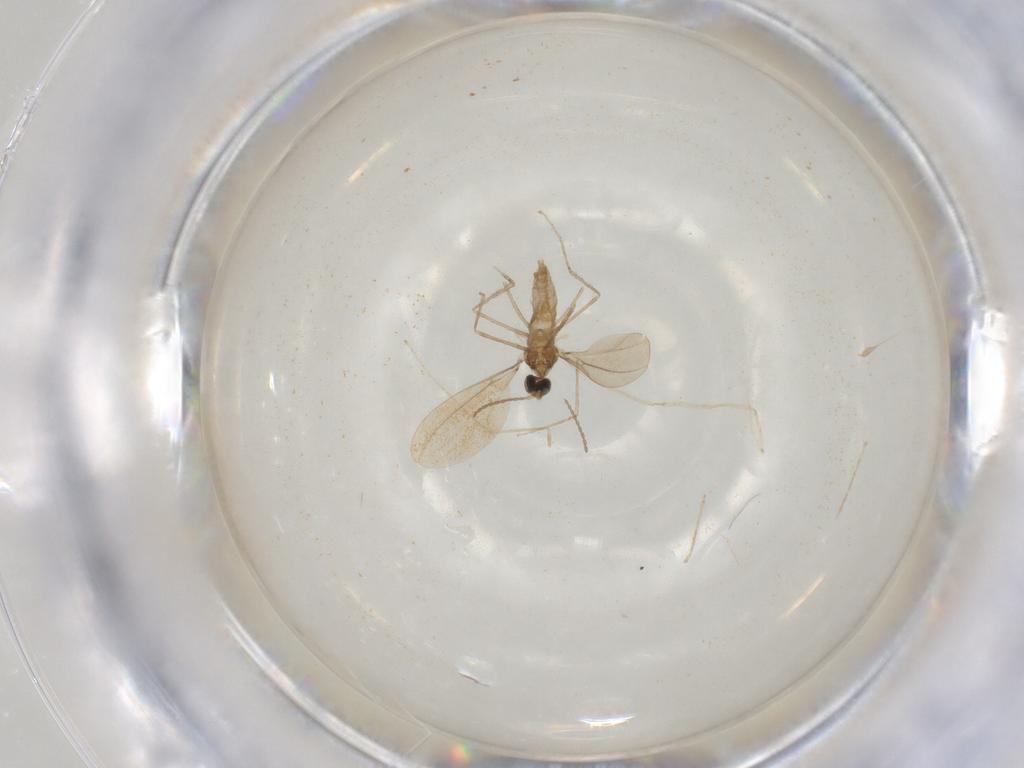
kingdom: Animalia
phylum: Arthropoda
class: Insecta
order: Diptera
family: Cecidomyiidae
